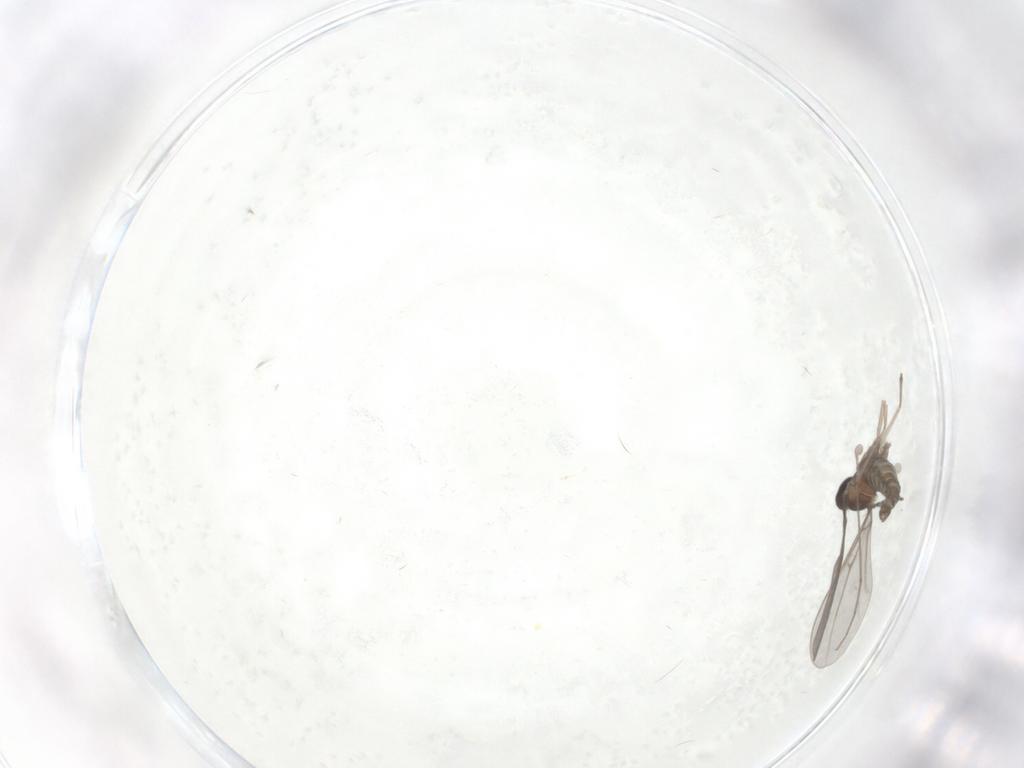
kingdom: Animalia
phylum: Arthropoda
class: Insecta
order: Diptera
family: Cecidomyiidae
